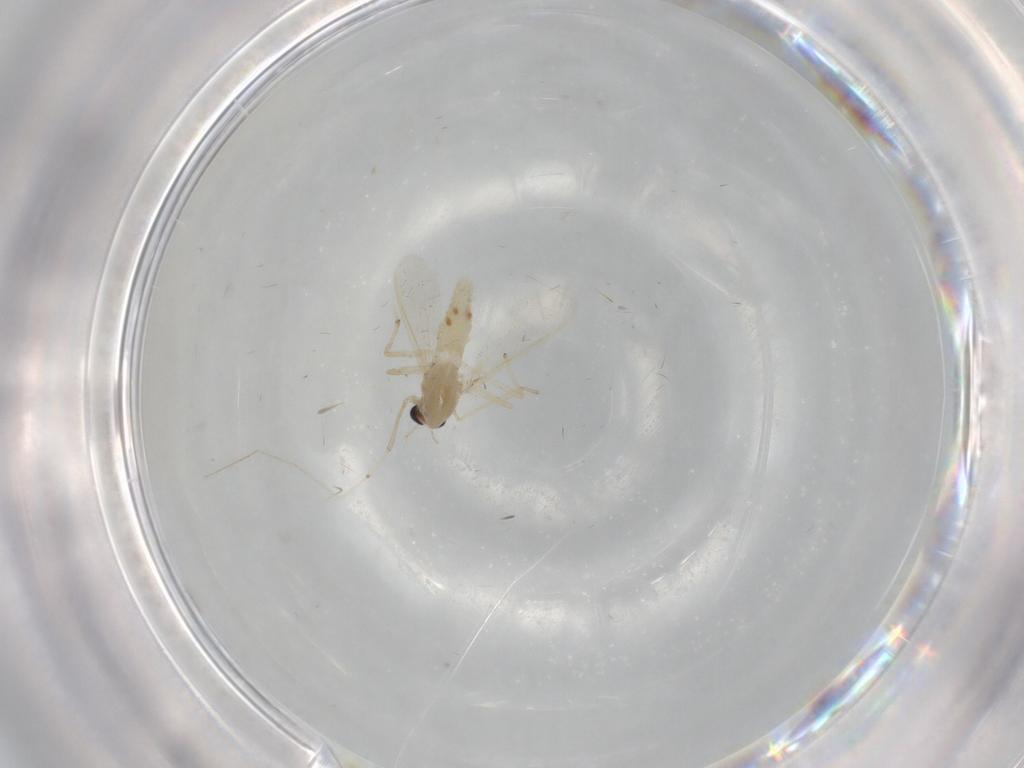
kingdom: Animalia
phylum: Arthropoda
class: Insecta
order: Diptera
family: Chironomidae
